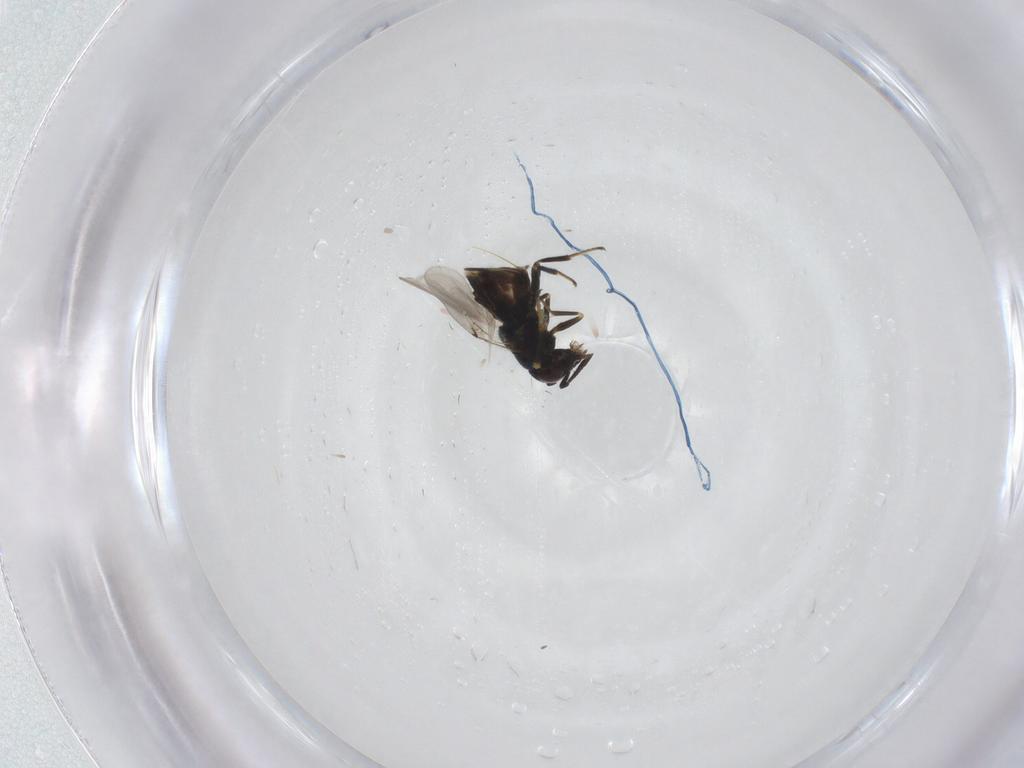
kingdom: Animalia
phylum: Arthropoda
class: Insecta
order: Hymenoptera
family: Encyrtidae
